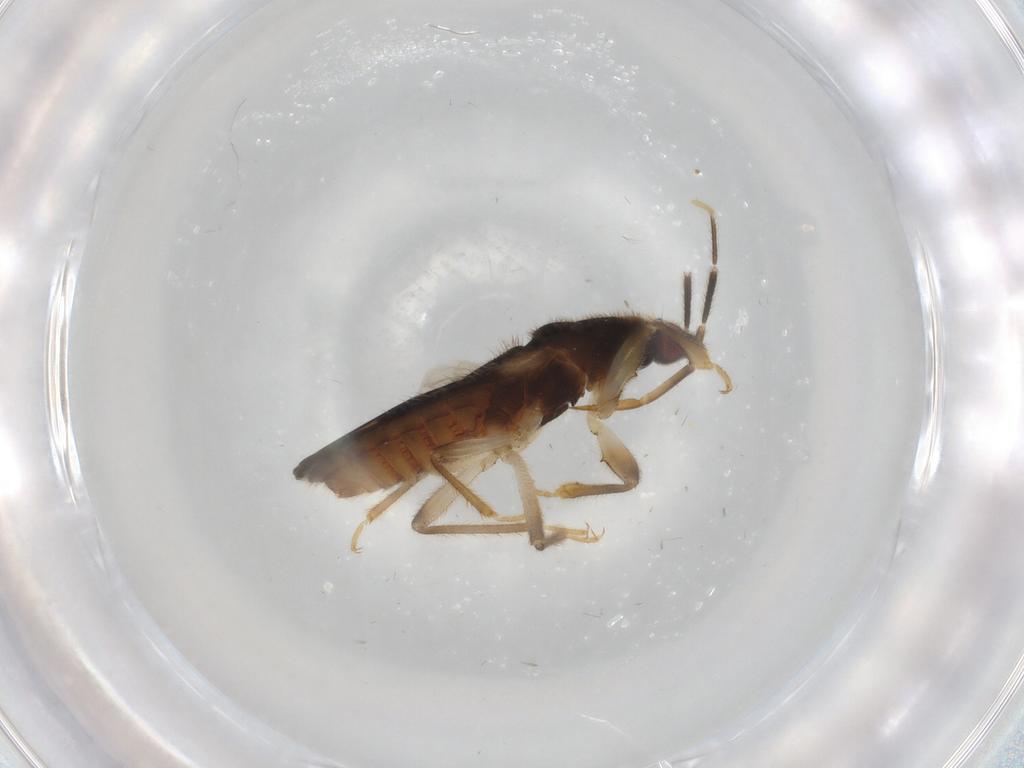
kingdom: Animalia
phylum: Arthropoda
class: Insecta
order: Hemiptera
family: Nabidae
